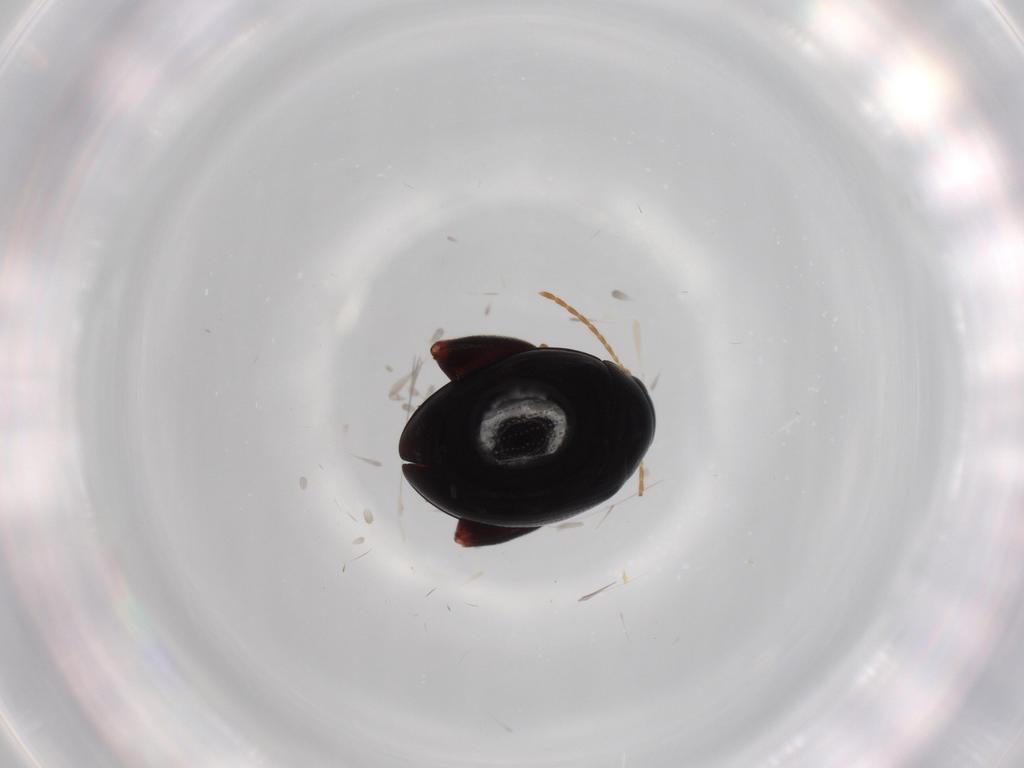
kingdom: Animalia
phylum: Arthropoda
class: Insecta
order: Coleoptera
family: Chrysomelidae
